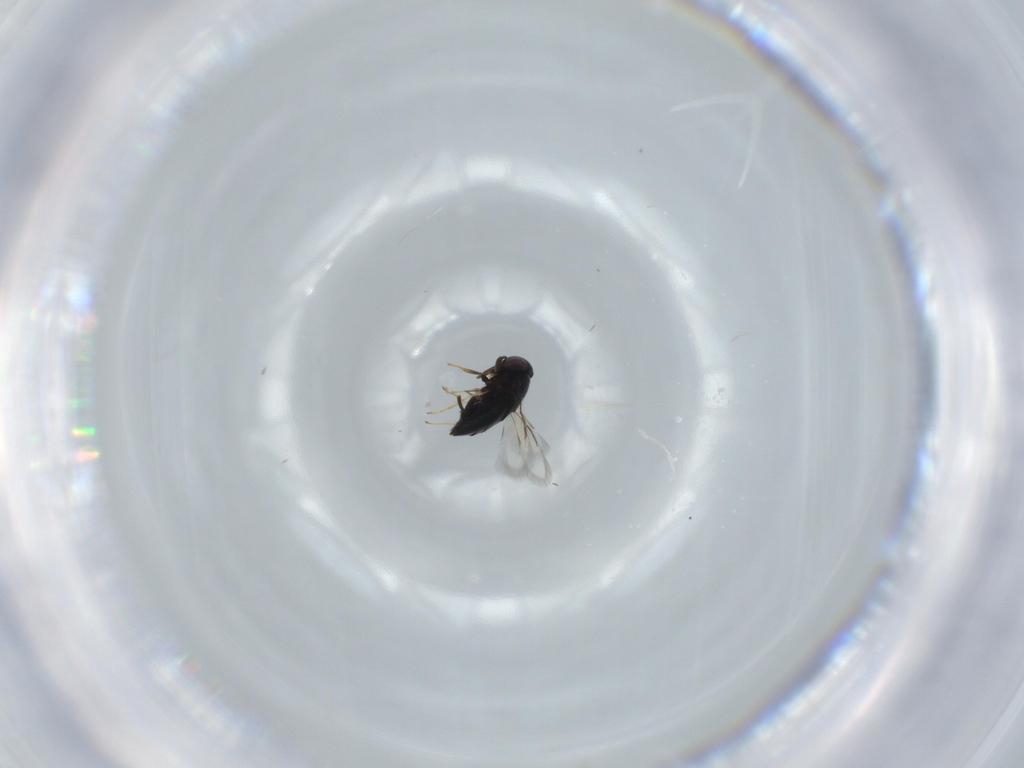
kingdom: Animalia
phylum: Arthropoda
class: Insecta
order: Hymenoptera
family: Signiphoridae
